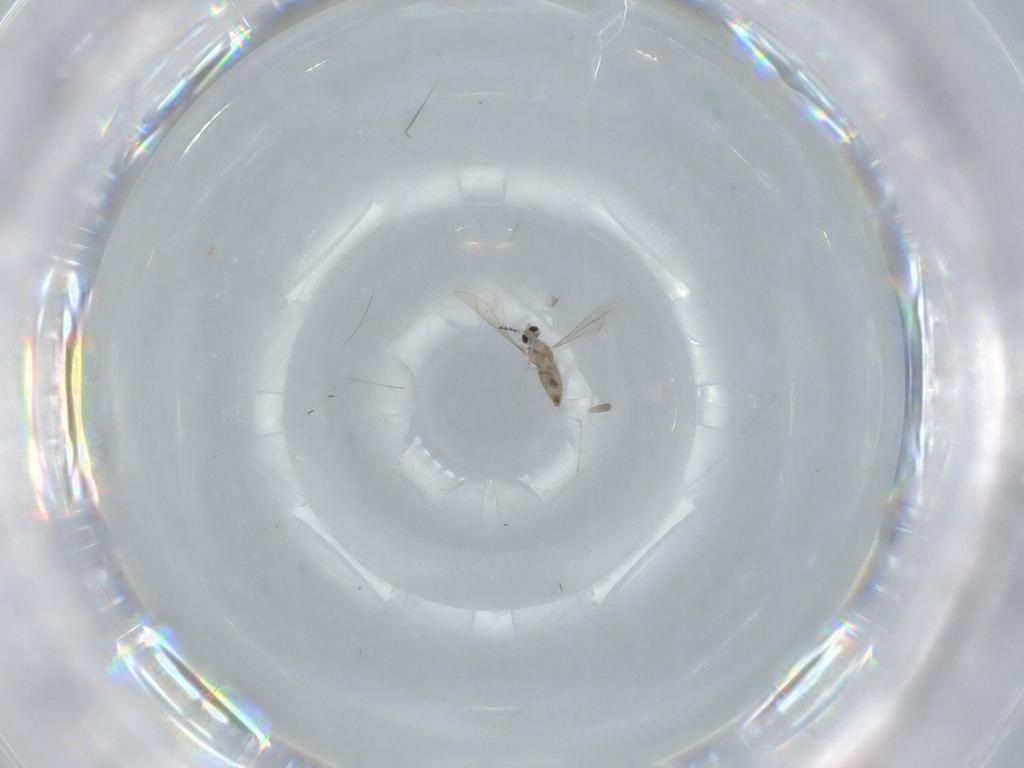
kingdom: Animalia
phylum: Arthropoda
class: Insecta
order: Diptera
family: Cecidomyiidae
